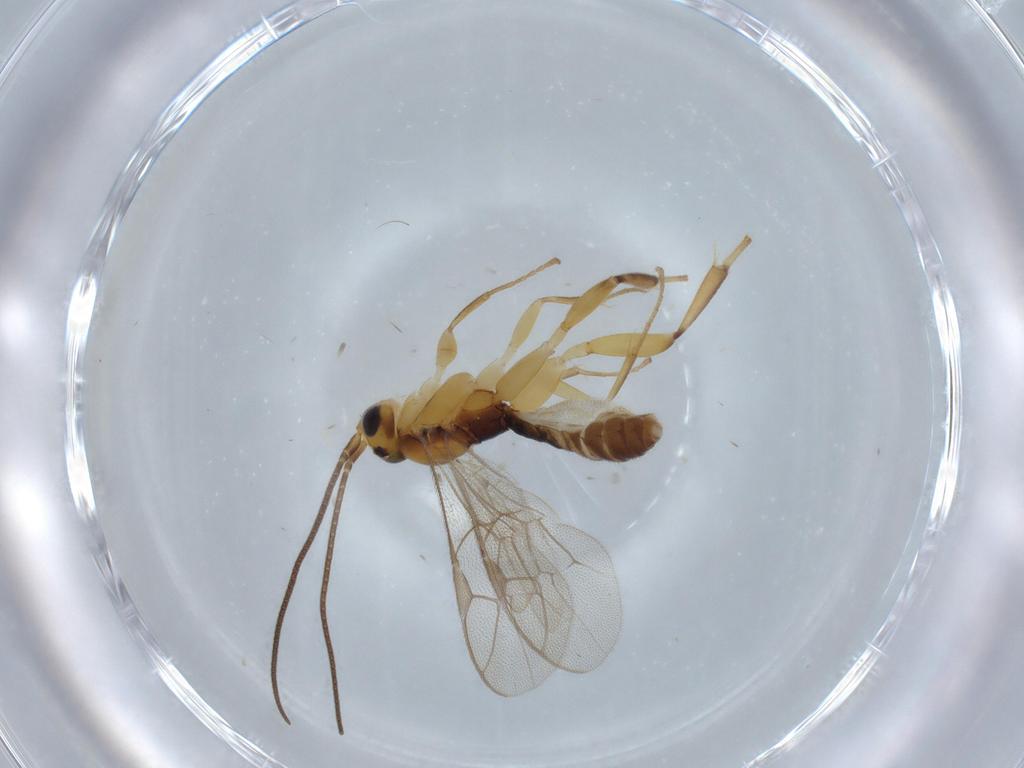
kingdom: Animalia
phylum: Arthropoda
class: Insecta
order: Hymenoptera
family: Ichneumonidae
